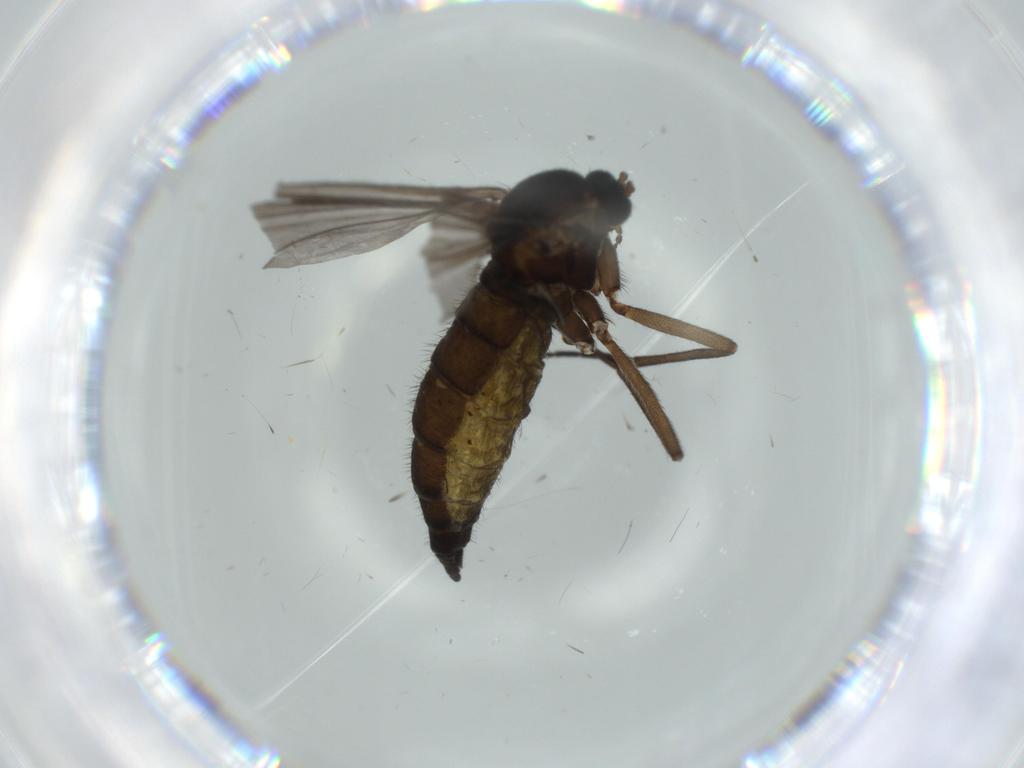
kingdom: Animalia
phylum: Arthropoda
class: Insecta
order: Diptera
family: Sciaridae
